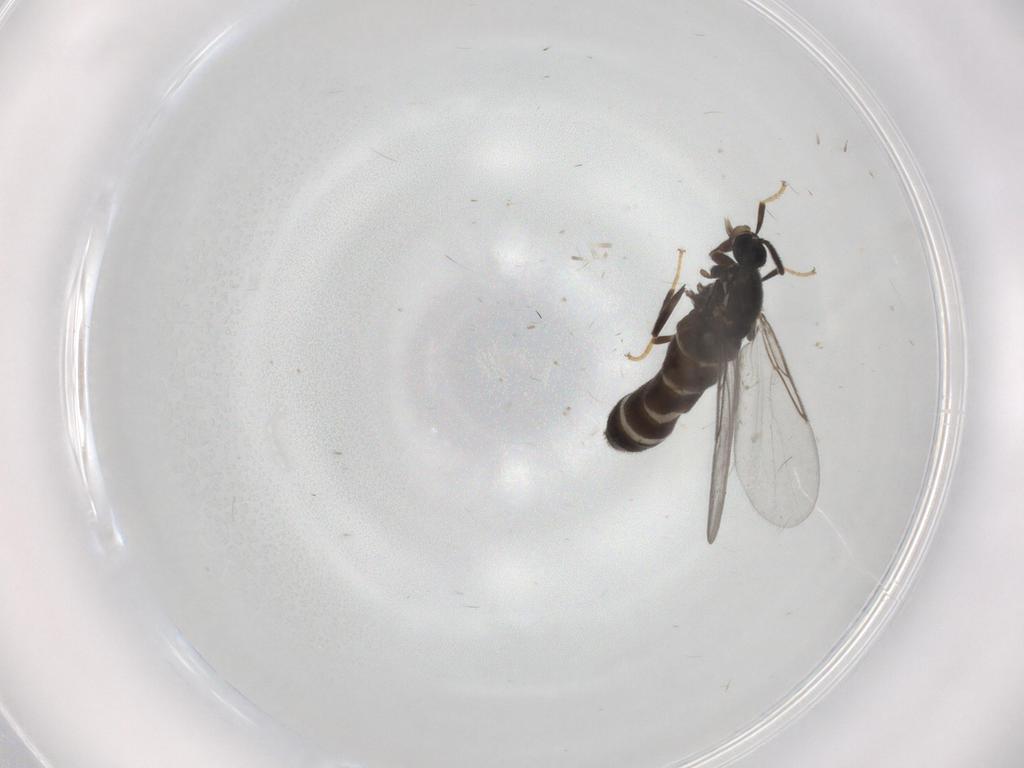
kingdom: Animalia
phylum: Arthropoda
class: Insecta
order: Diptera
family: Scatopsidae
